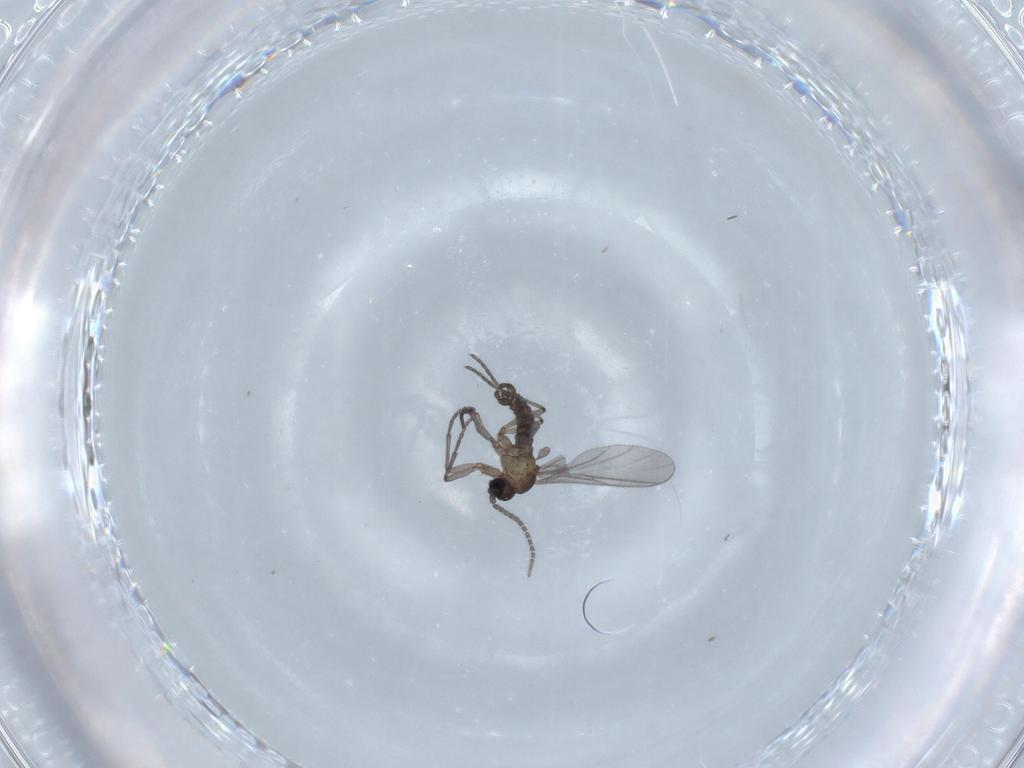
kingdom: Animalia
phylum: Arthropoda
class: Insecta
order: Diptera
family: Sciaridae
